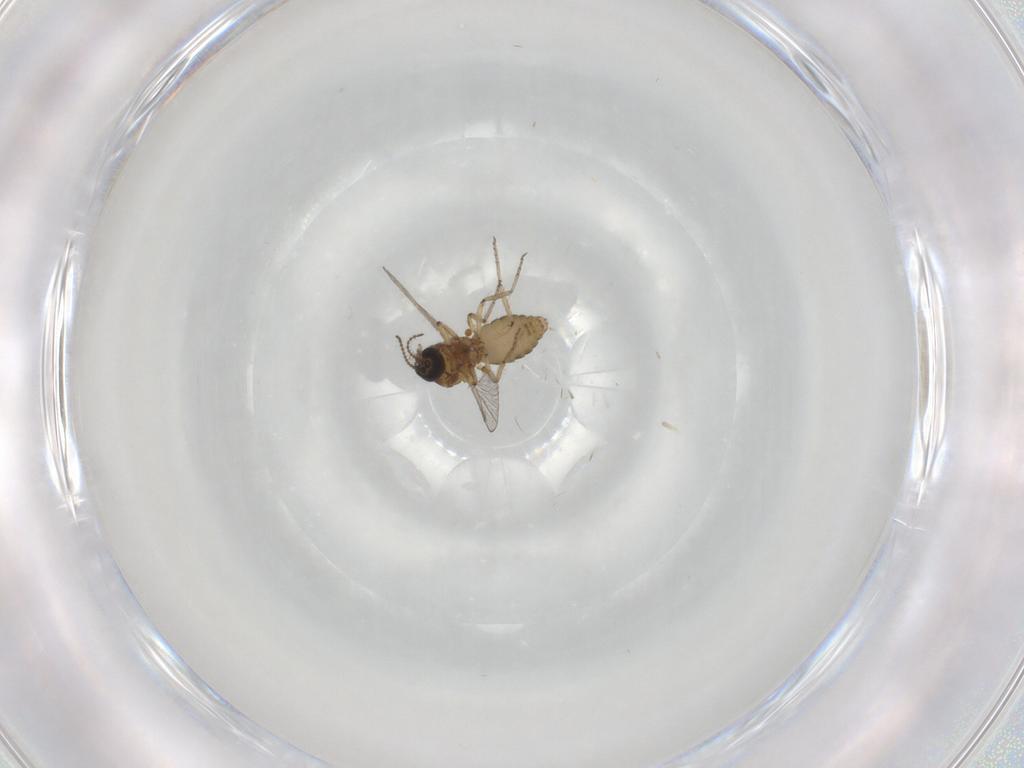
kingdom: Animalia
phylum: Arthropoda
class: Insecta
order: Diptera
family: Ceratopogonidae
